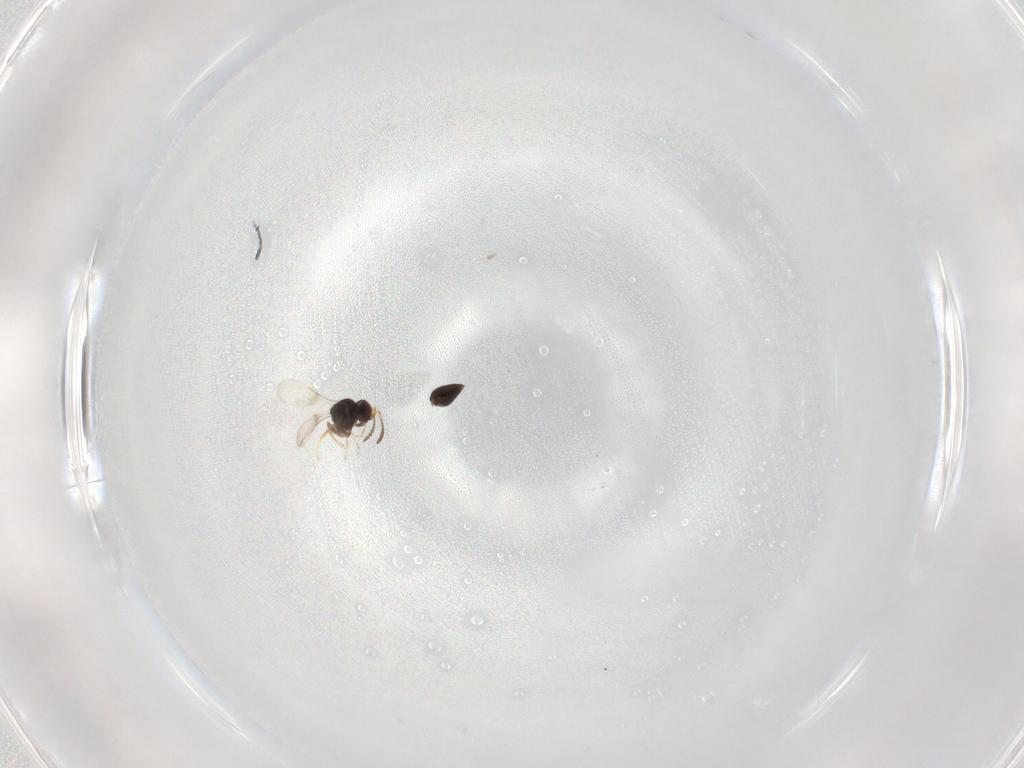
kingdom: Animalia
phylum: Arthropoda
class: Insecta
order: Hymenoptera
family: Ceraphronidae
